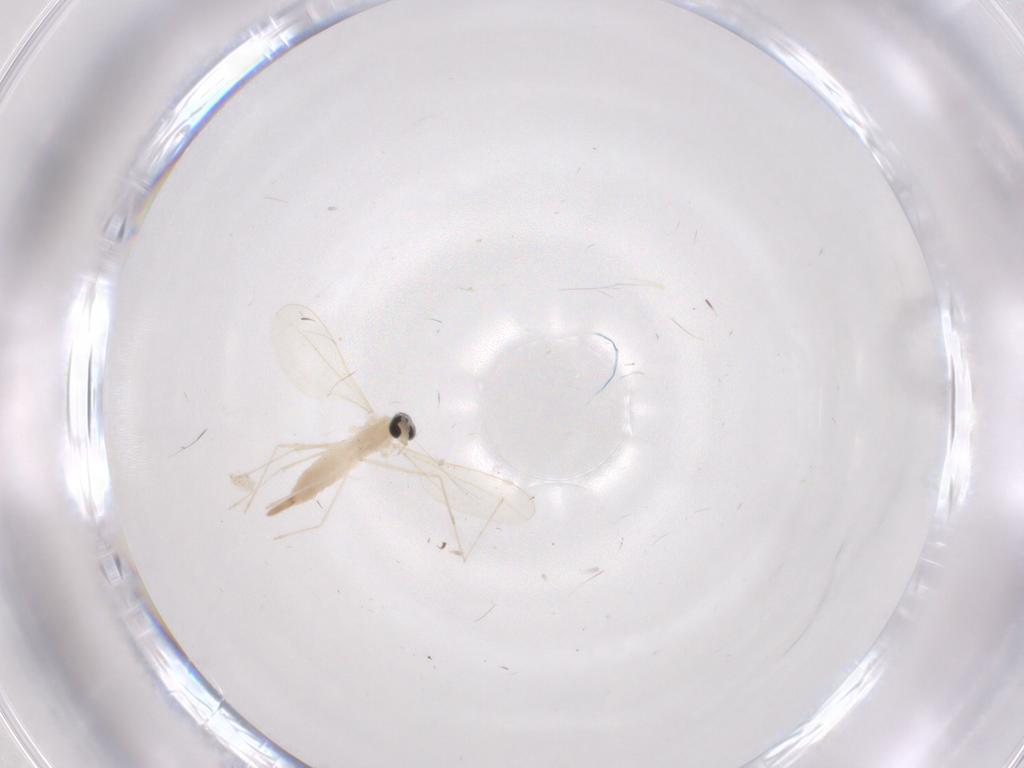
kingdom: Animalia
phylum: Arthropoda
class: Insecta
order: Diptera
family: Cecidomyiidae
